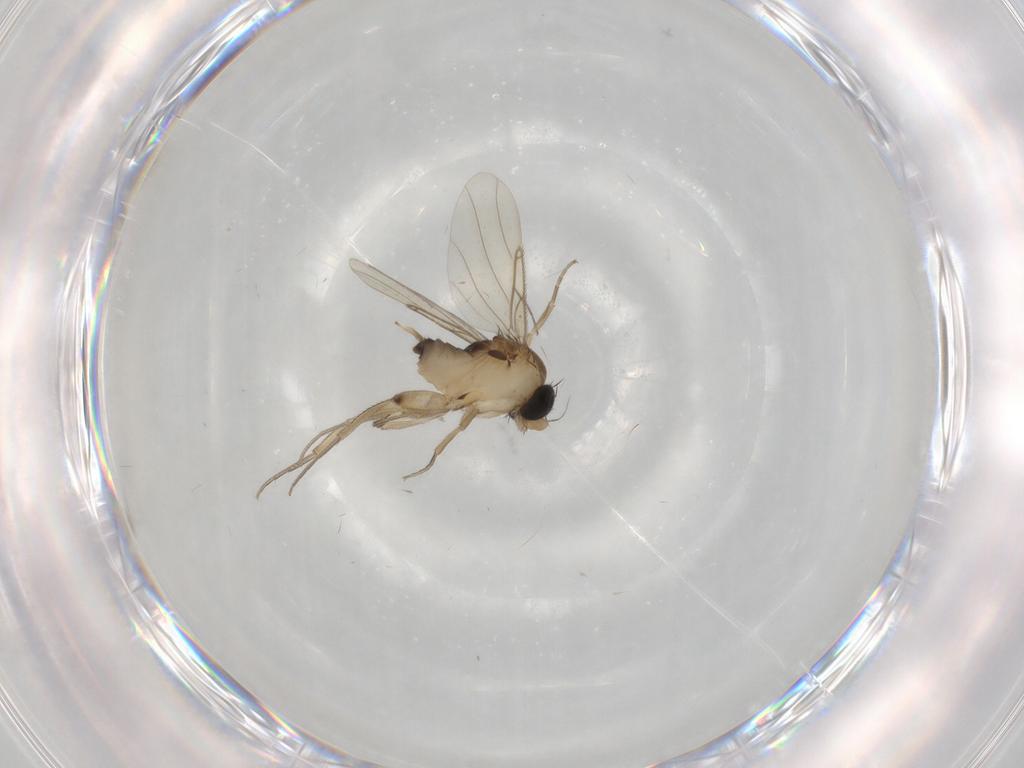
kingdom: Animalia
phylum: Arthropoda
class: Insecta
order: Diptera
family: Phoridae
